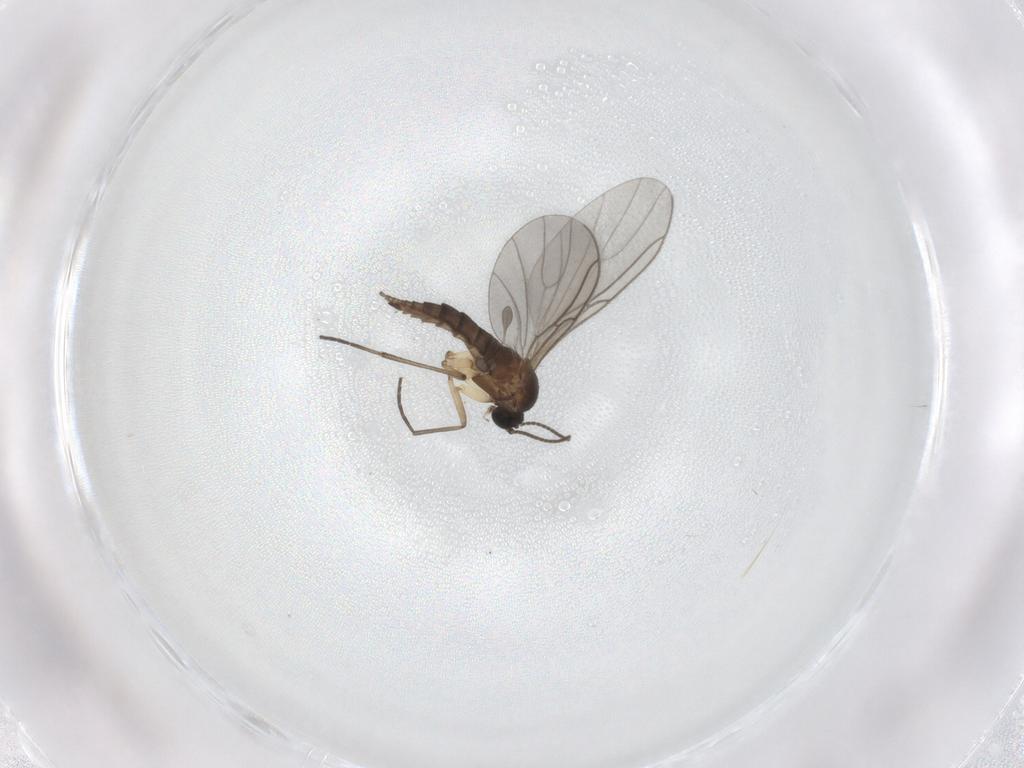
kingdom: Animalia
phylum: Arthropoda
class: Insecta
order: Diptera
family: Sciaridae
